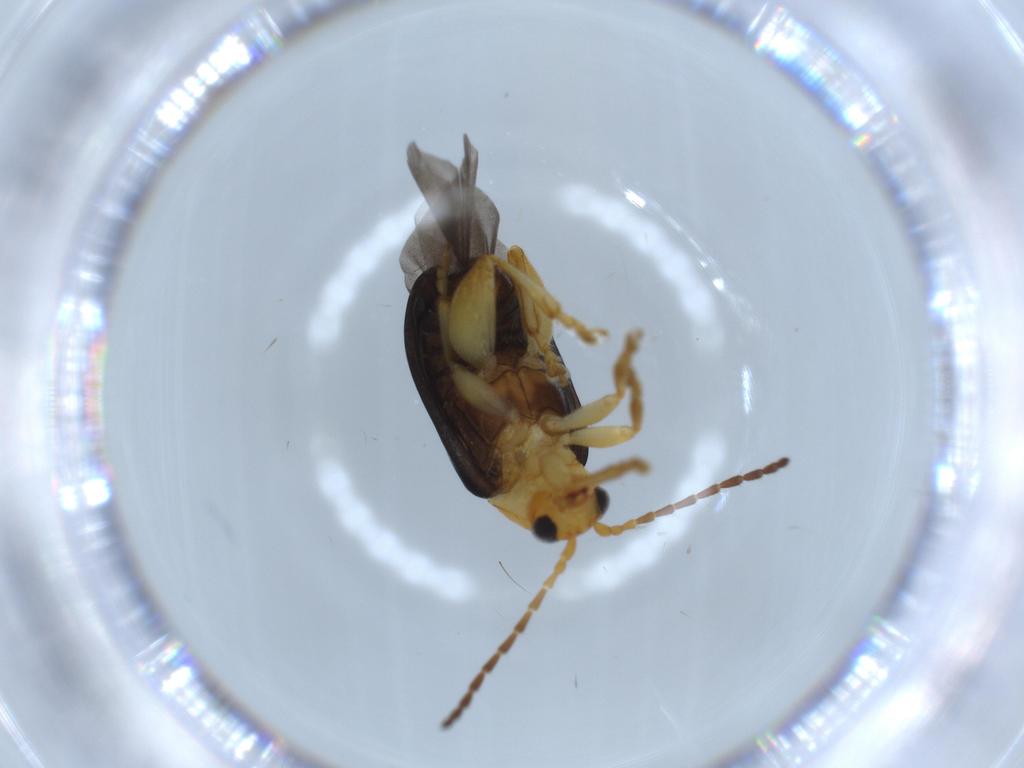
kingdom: Animalia
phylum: Arthropoda
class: Insecta
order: Coleoptera
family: Chrysomelidae
